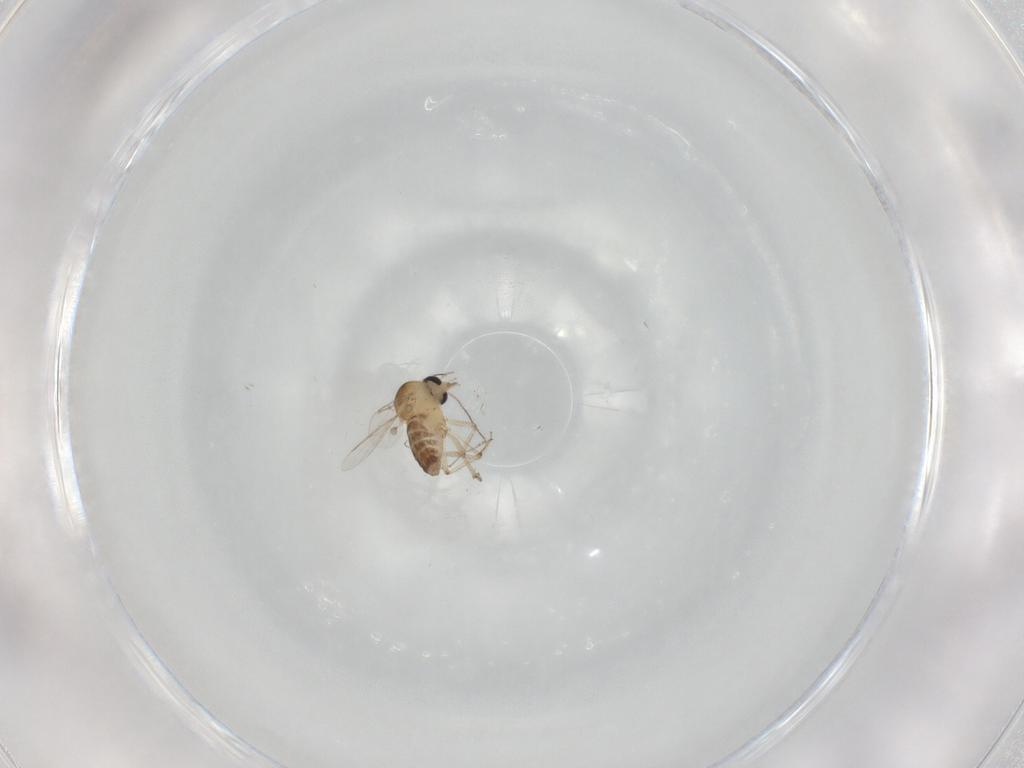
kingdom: Animalia
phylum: Arthropoda
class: Insecta
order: Diptera
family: Ceratopogonidae
